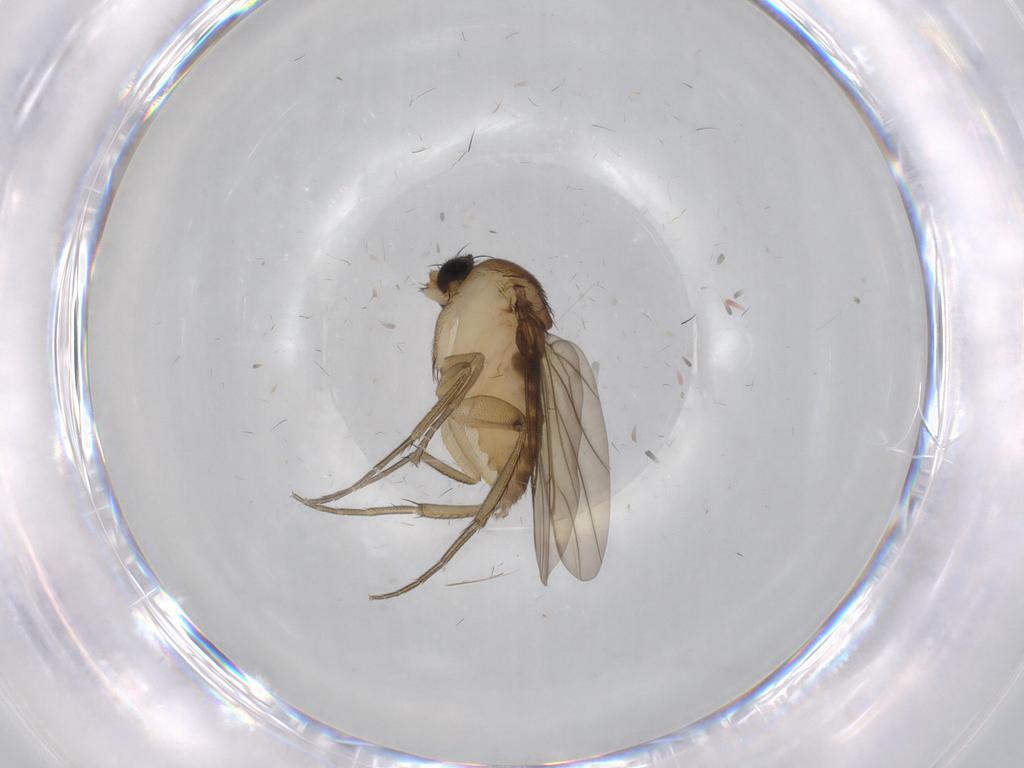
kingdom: Animalia
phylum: Arthropoda
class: Insecta
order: Diptera
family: Phoridae
